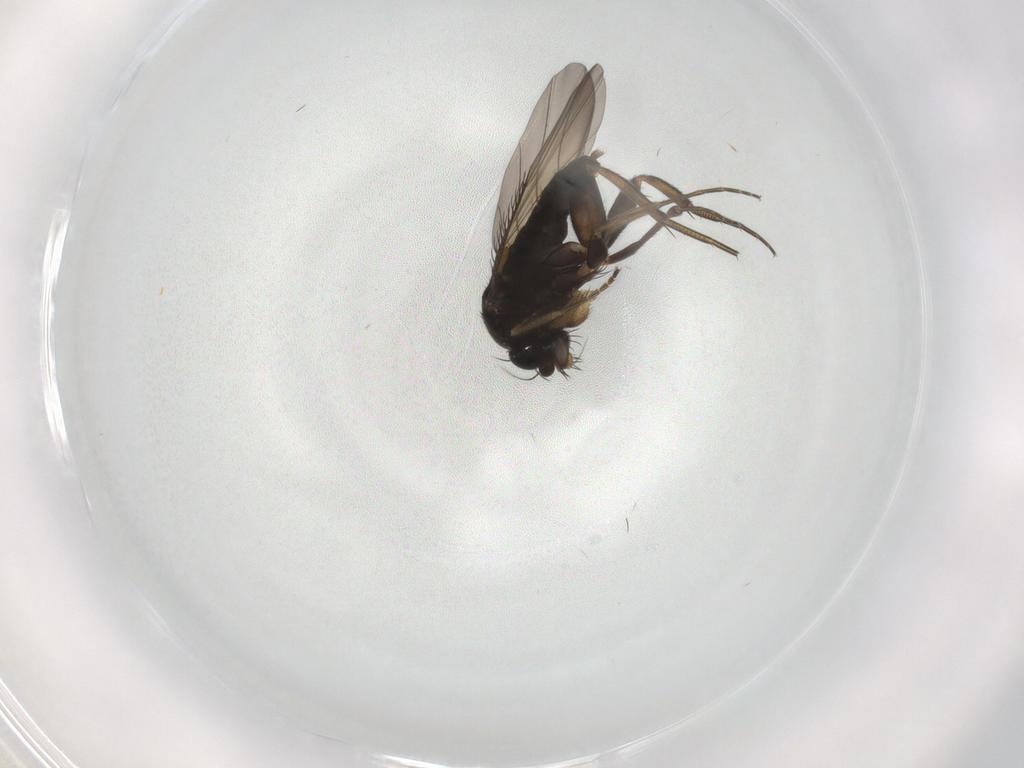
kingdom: Animalia
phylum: Arthropoda
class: Insecta
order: Diptera
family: Phoridae
